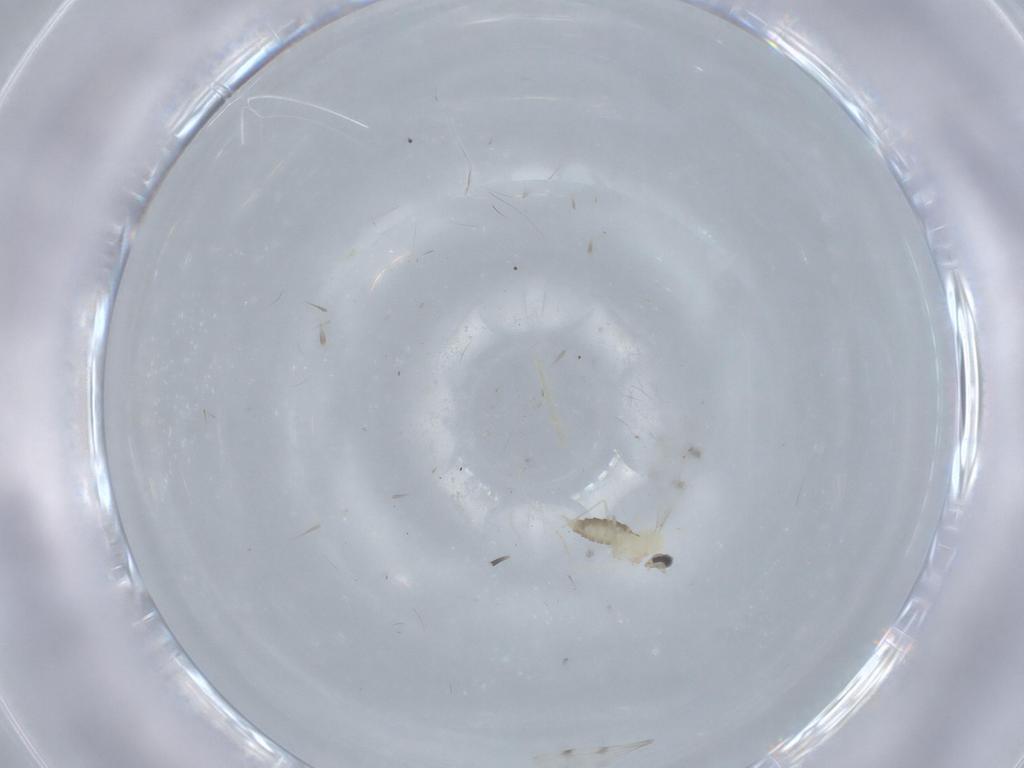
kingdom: Animalia
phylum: Arthropoda
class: Insecta
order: Diptera
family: Cecidomyiidae
